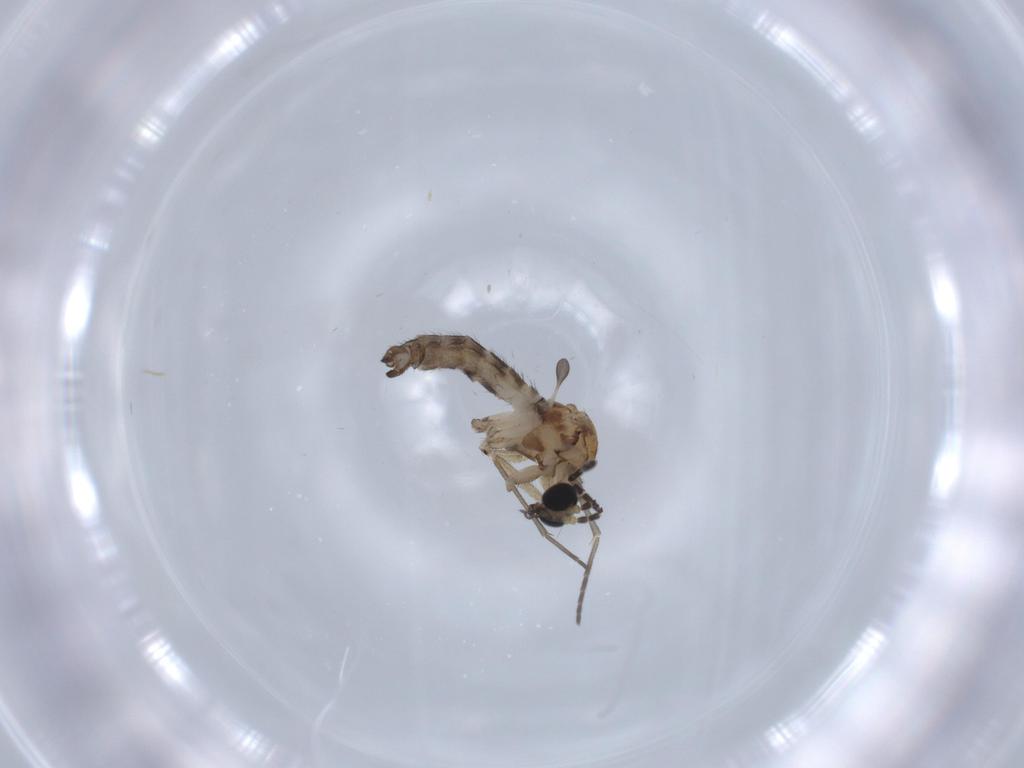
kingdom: Animalia
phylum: Arthropoda
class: Insecta
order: Diptera
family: Sciaridae
